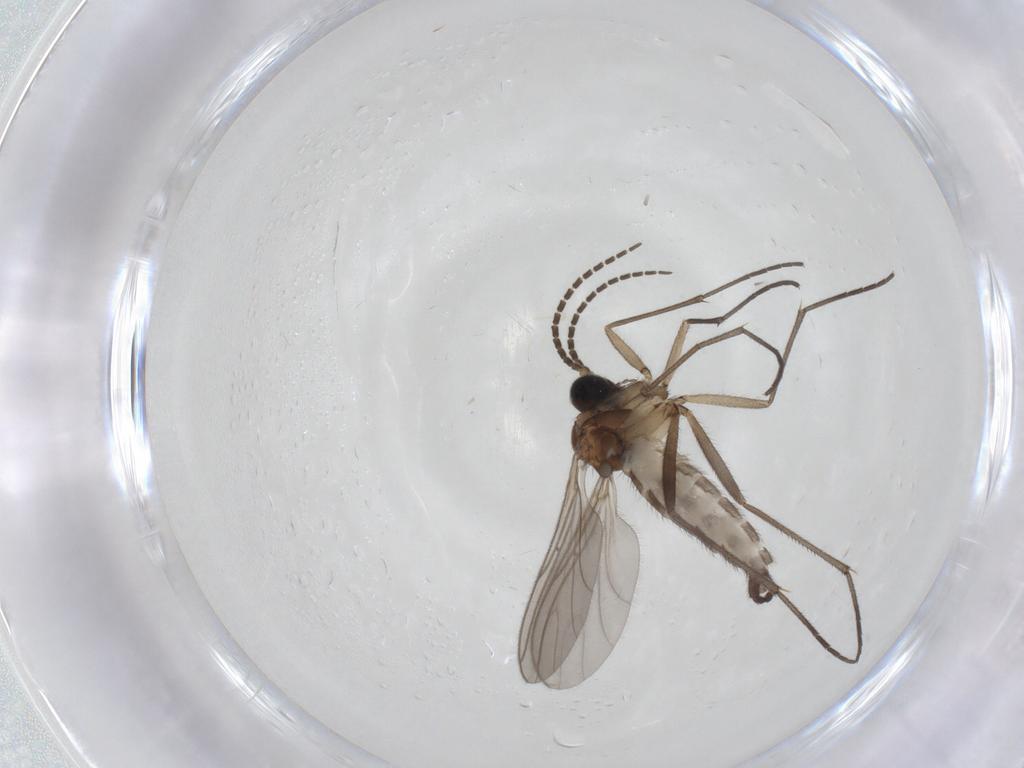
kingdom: Animalia
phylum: Arthropoda
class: Insecta
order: Diptera
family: Sciaridae
